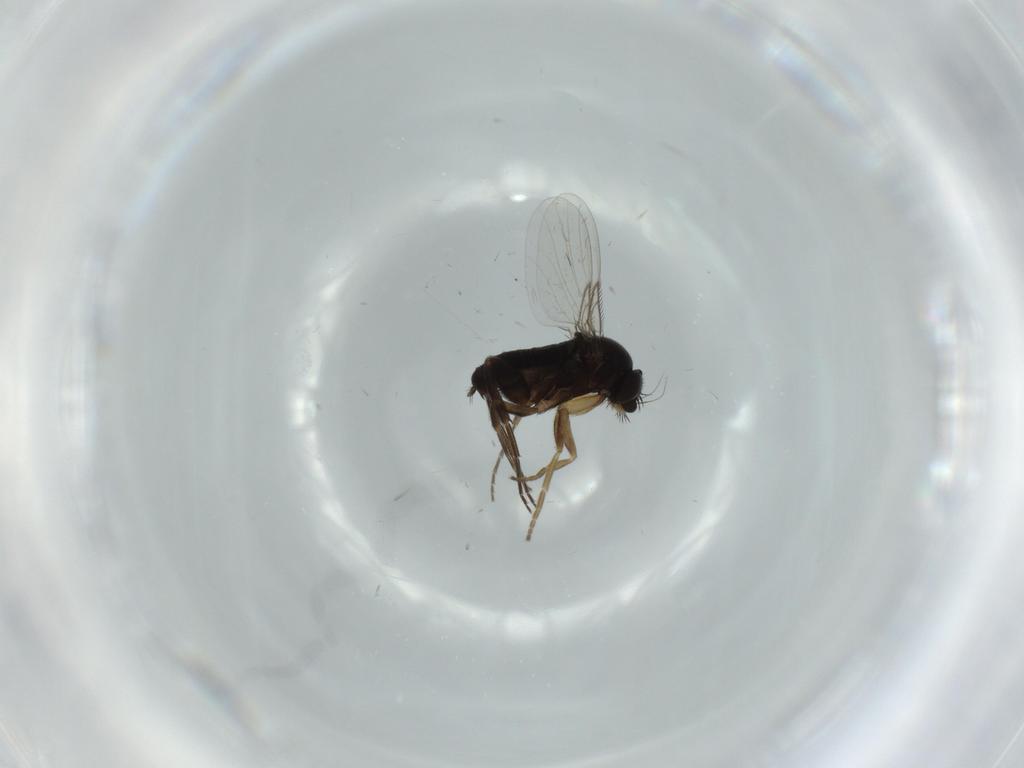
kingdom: Animalia
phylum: Arthropoda
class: Insecta
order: Diptera
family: Phoridae
